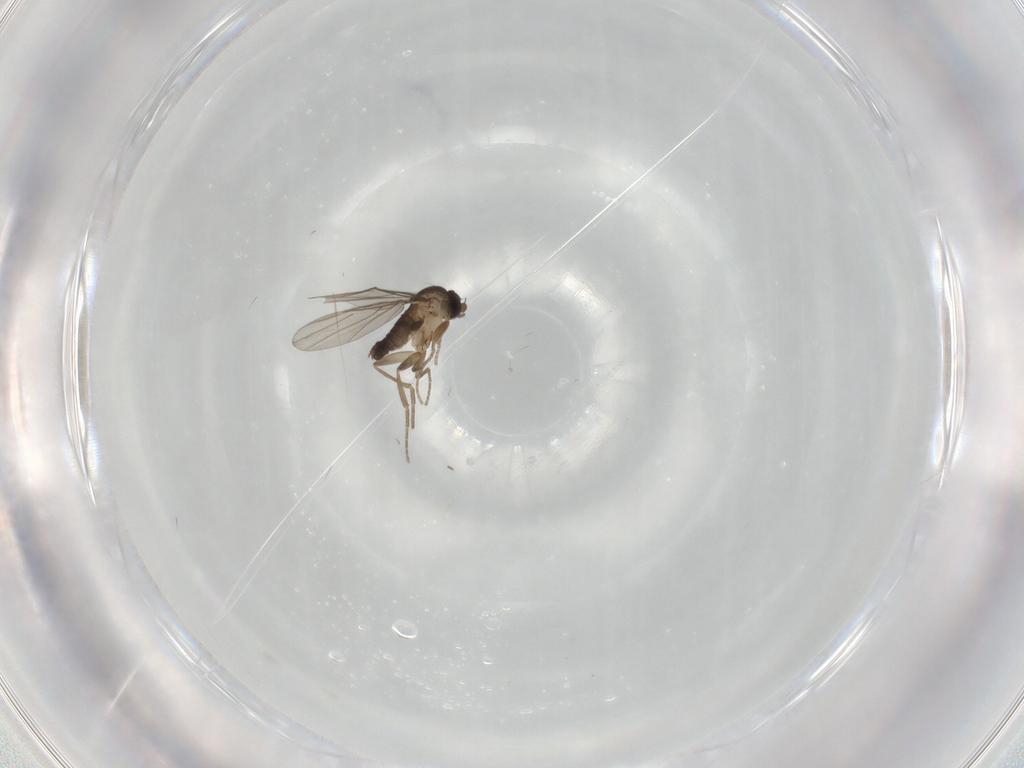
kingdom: Animalia
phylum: Arthropoda
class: Insecta
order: Diptera
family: Phoridae
